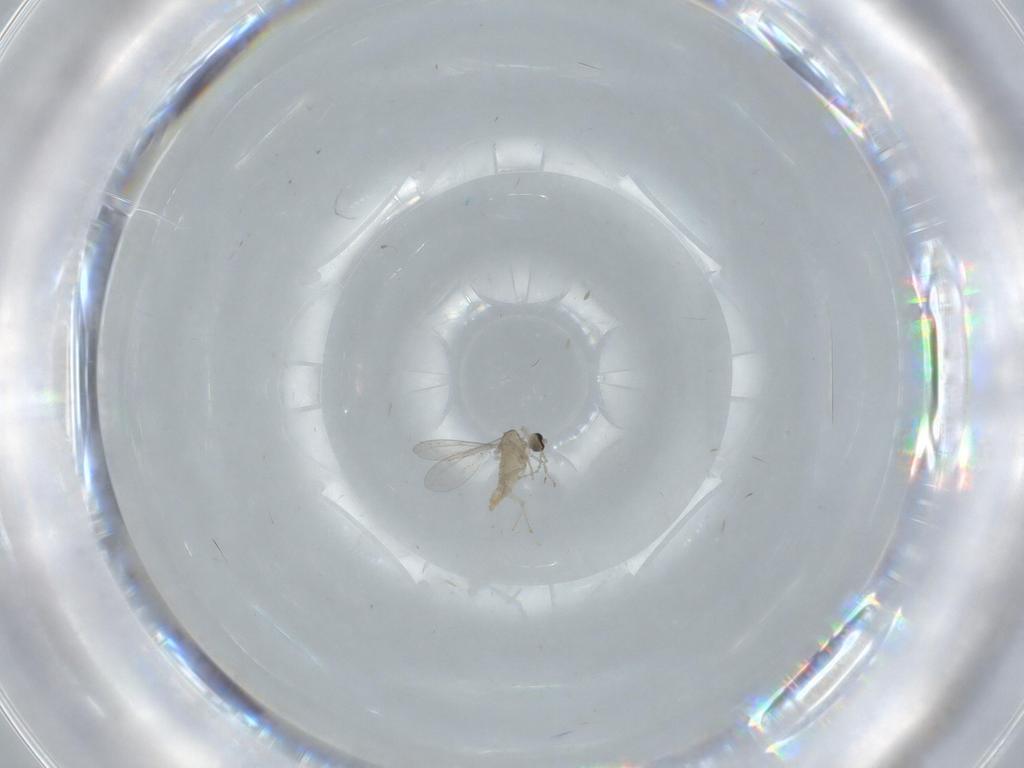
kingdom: Animalia
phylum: Arthropoda
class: Insecta
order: Diptera
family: Cecidomyiidae
